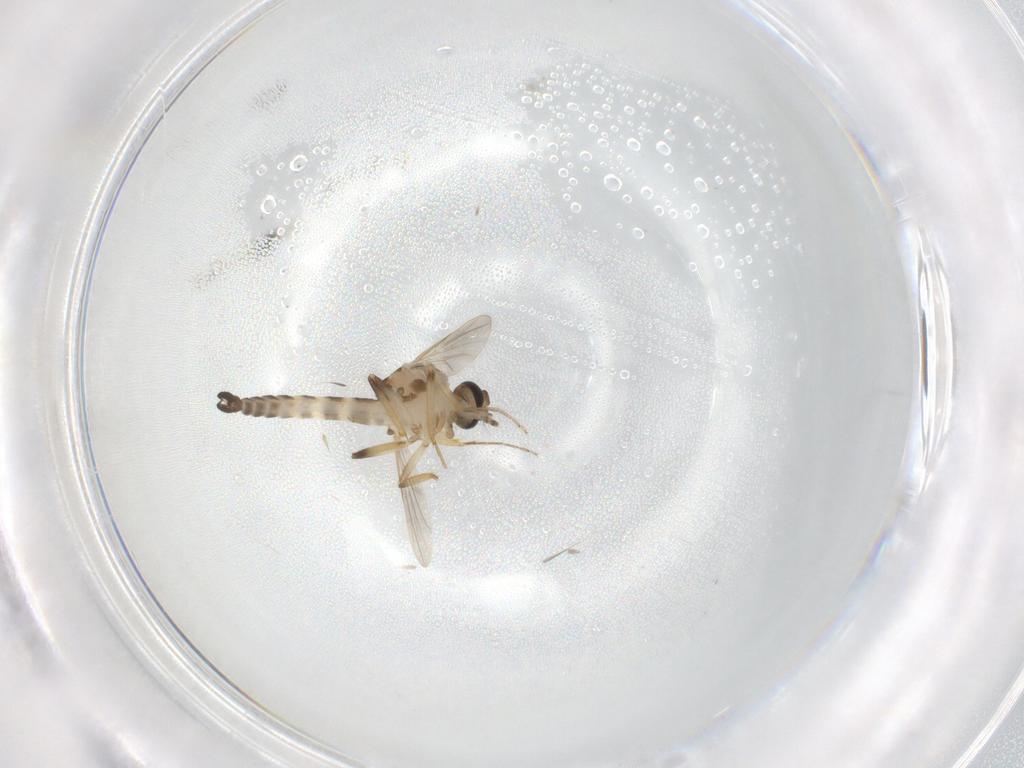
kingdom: Animalia
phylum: Arthropoda
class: Insecta
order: Diptera
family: Ceratopogonidae
